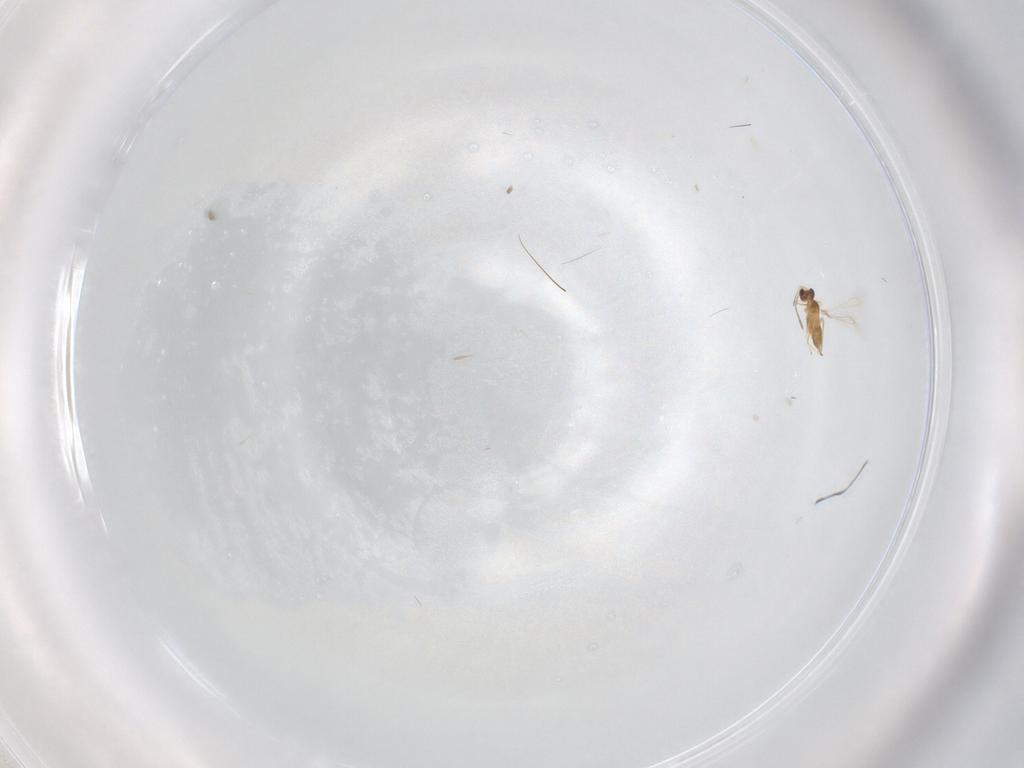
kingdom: Animalia
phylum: Arthropoda
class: Insecta
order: Hymenoptera
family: Mymaridae
